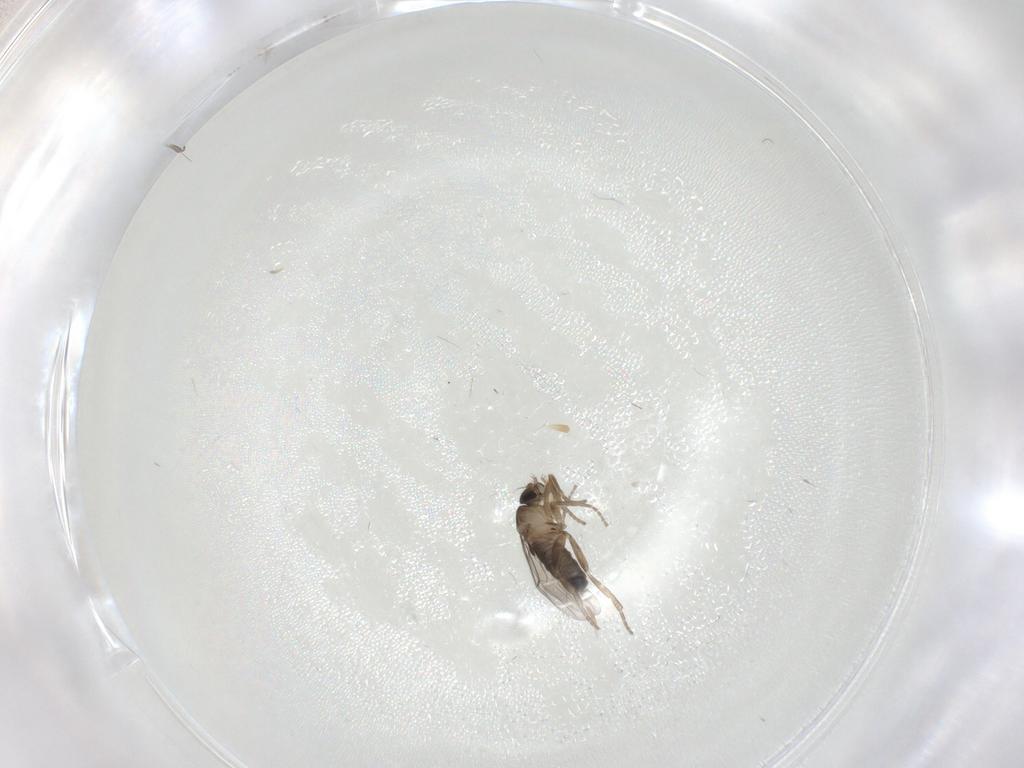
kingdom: Animalia
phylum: Arthropoda
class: Insecta
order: Diptera
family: Phoridae
